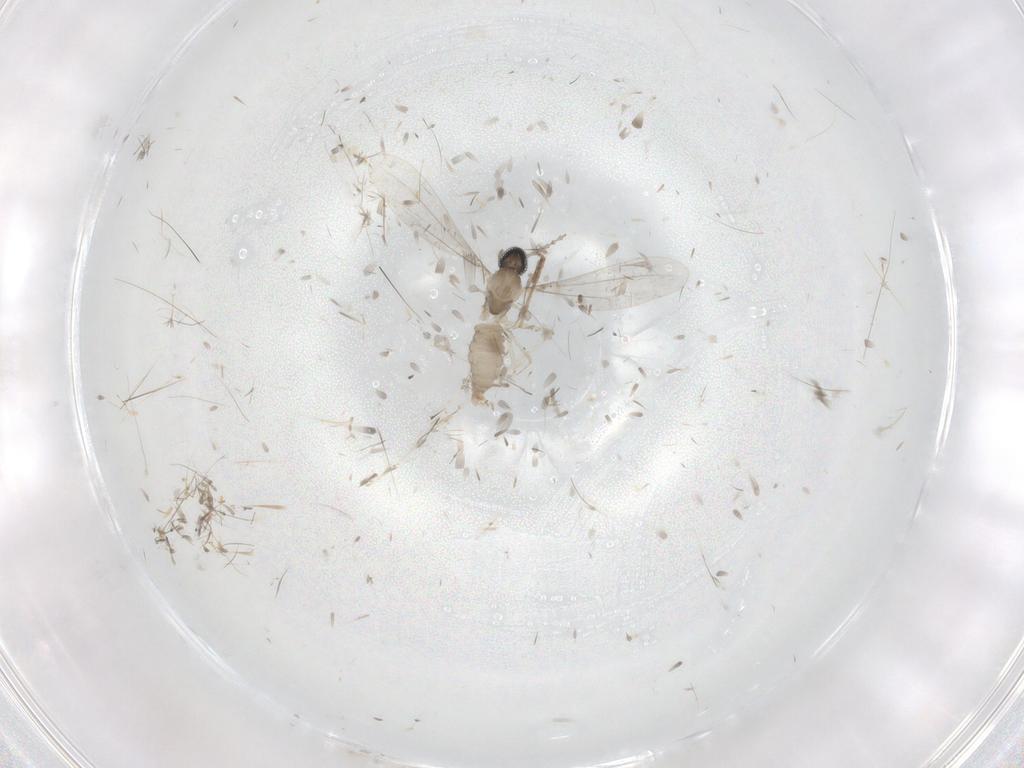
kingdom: Animalia
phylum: Arthropoda
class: Insecta
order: Diptera
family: Cecidomyiidae
